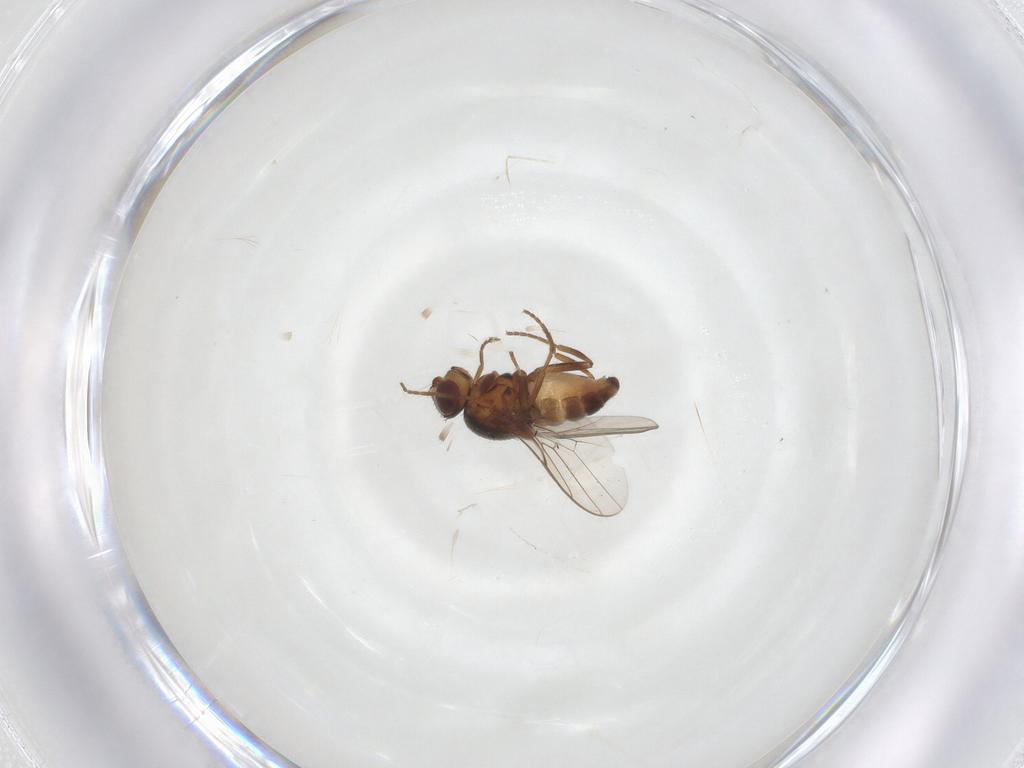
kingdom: Animalia
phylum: Arthropoda
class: Insecta
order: Diptera
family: Chloropidae
